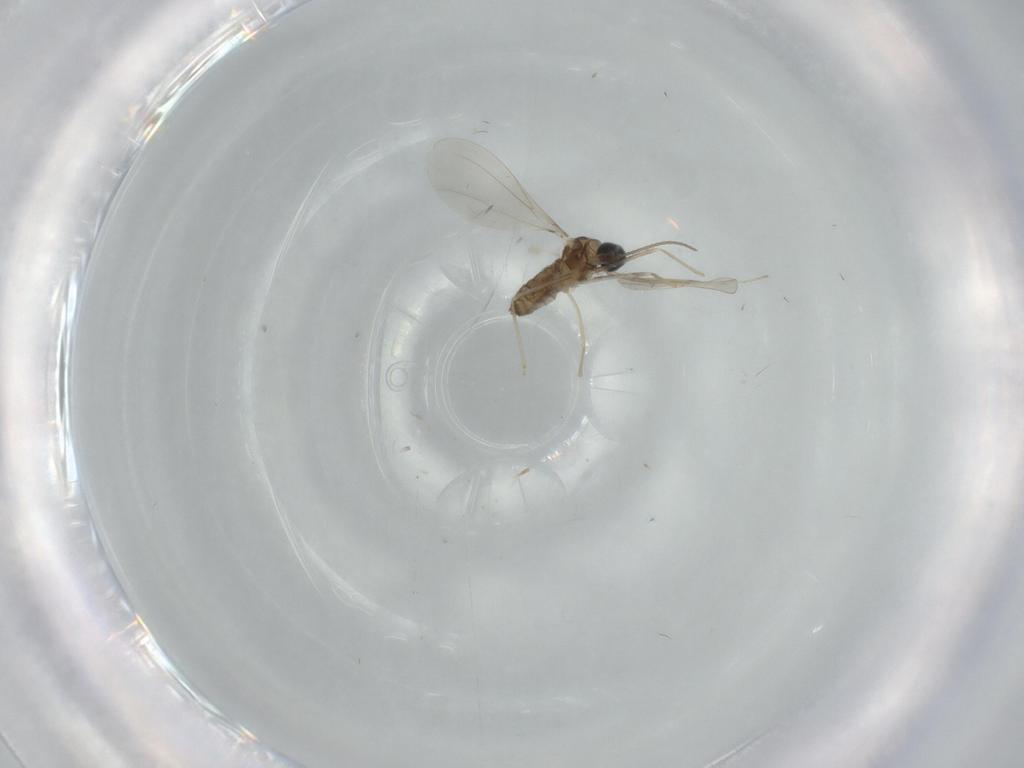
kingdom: Animalia
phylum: Arthropoda
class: Insecta
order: Diptera
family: Cecidomyiidae
